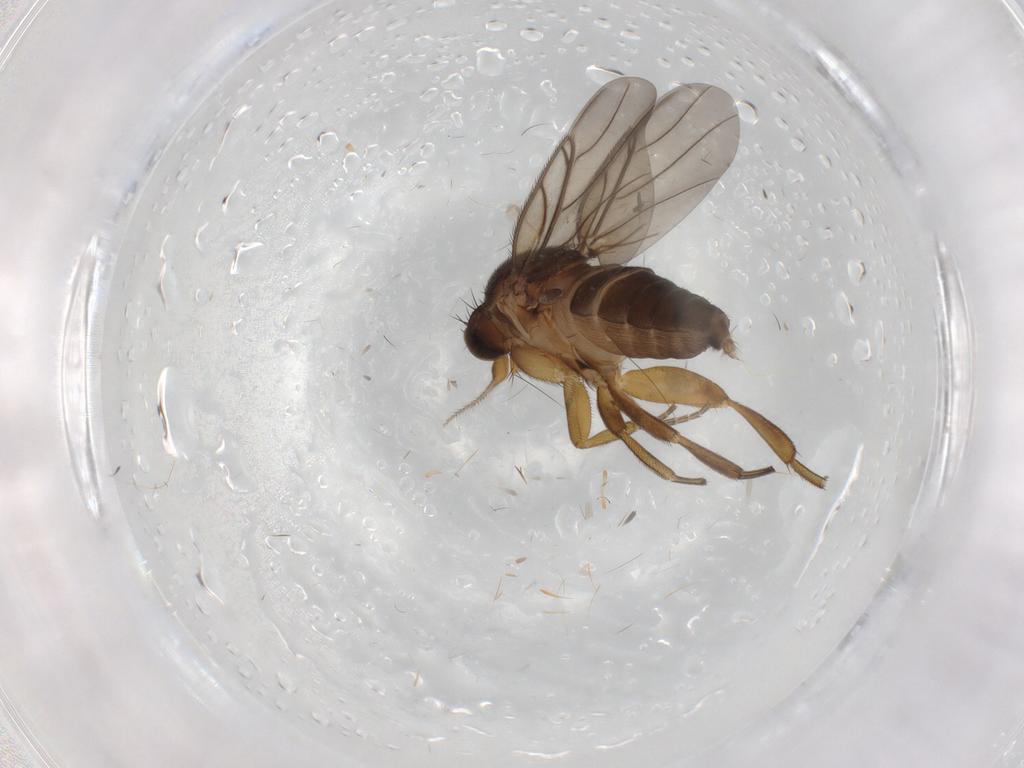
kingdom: Animalia
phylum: Arthropoda
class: Insecta
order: Diptera
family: Phoridae
